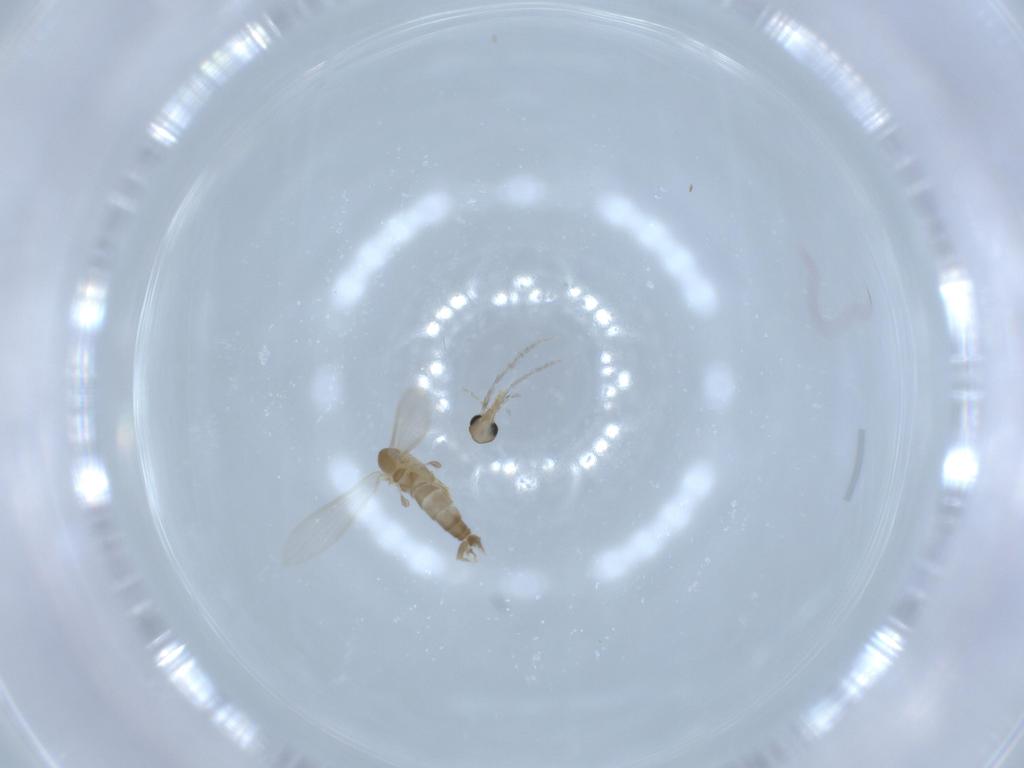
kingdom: Animalia
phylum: Arthropoda
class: Insecta
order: Diptera
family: Psychodidae
